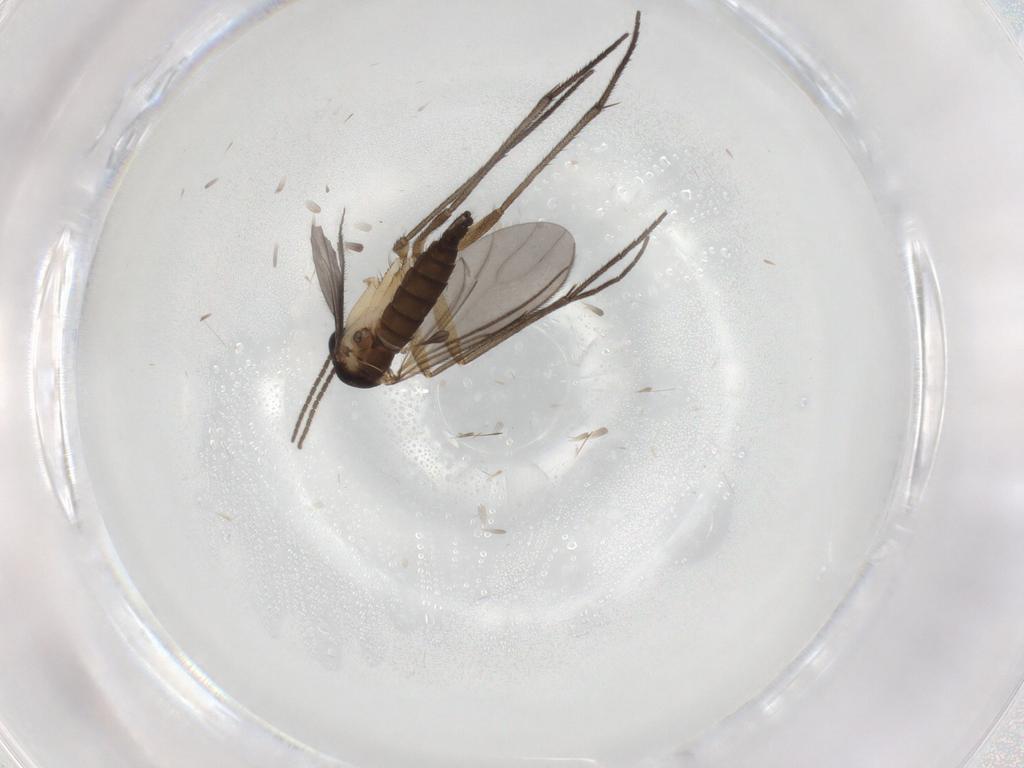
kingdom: Animalia
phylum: Arthropoda
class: Insecta
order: Diptera
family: Sciaridae
